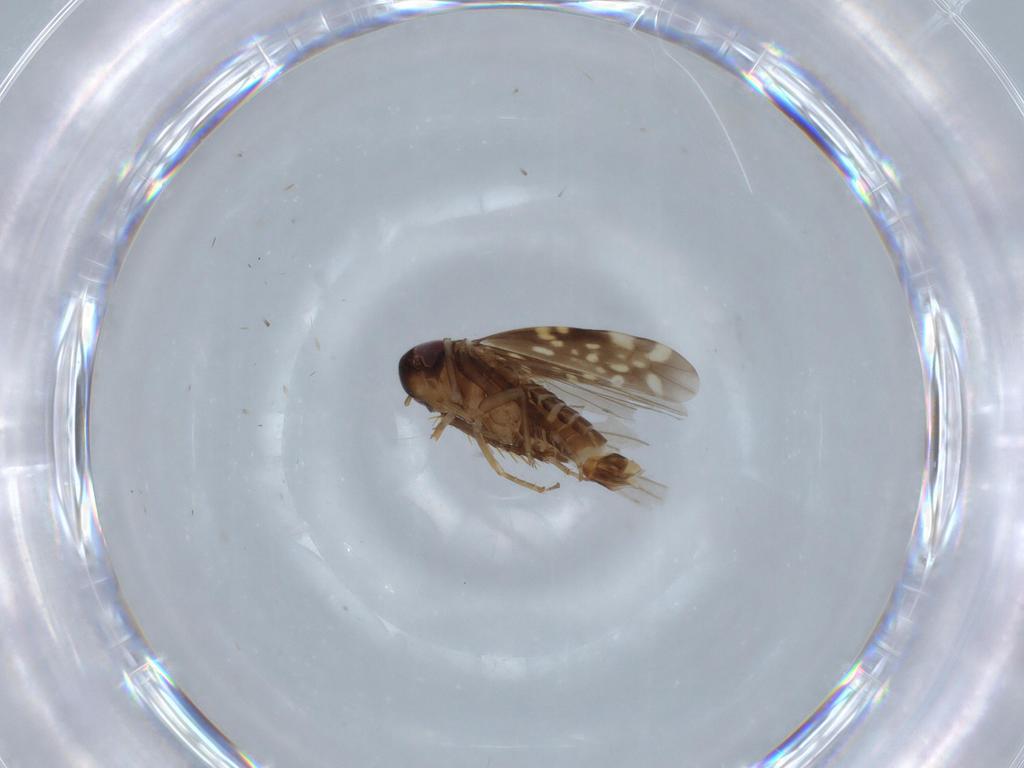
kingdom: Animalia
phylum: Arthropoda
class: Insecta
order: Hemiptera
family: Cicadellidae
